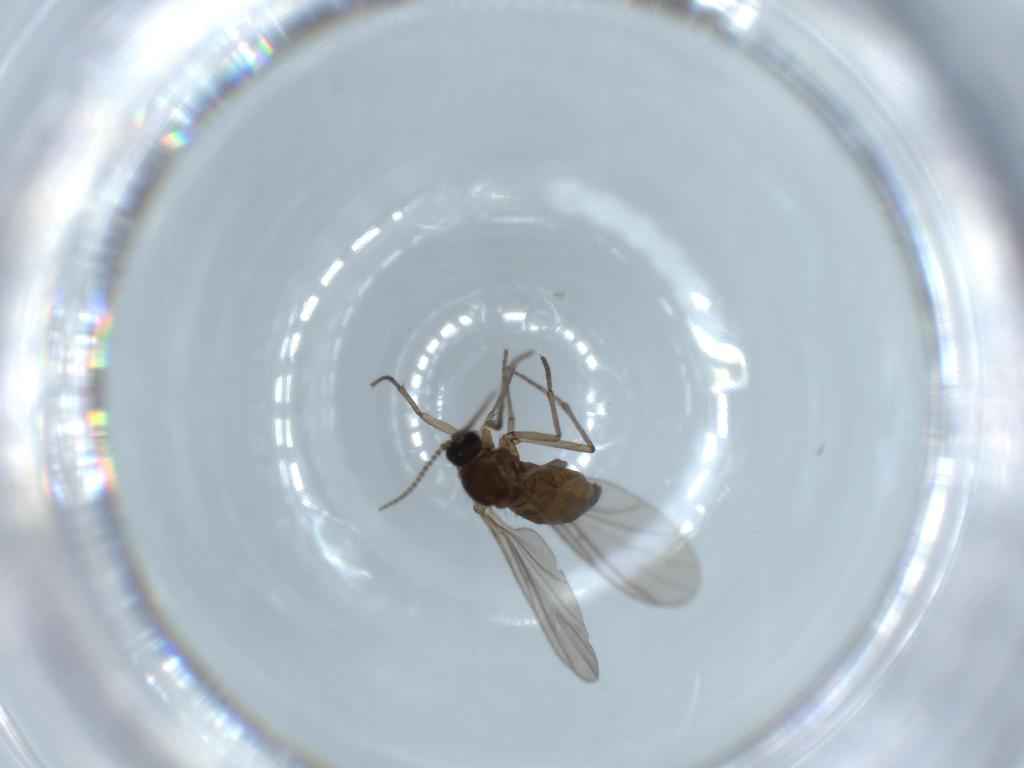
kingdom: Animalia
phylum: Arthropoda
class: Insecta
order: Diptera
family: Sciaridae
